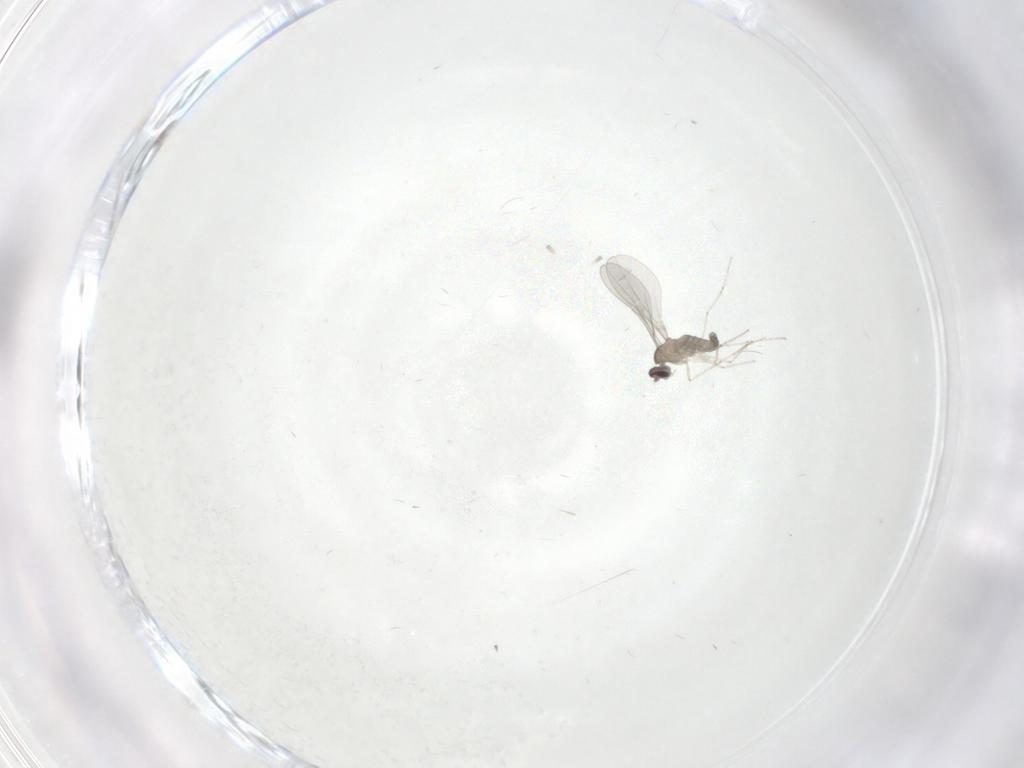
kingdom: Animalia
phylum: Arthropoda
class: Insecta
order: Diptera
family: Cecidomyiidae
